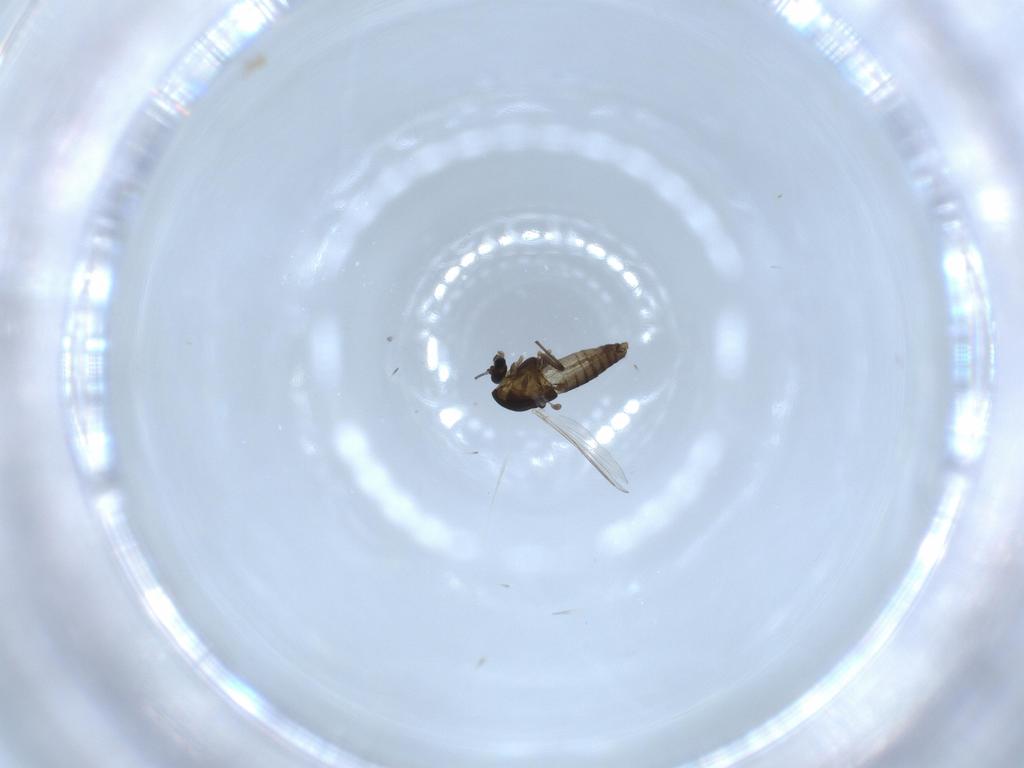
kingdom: Animalia
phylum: Arthropoda
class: Insecta
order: Diptera
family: Chironomidae
